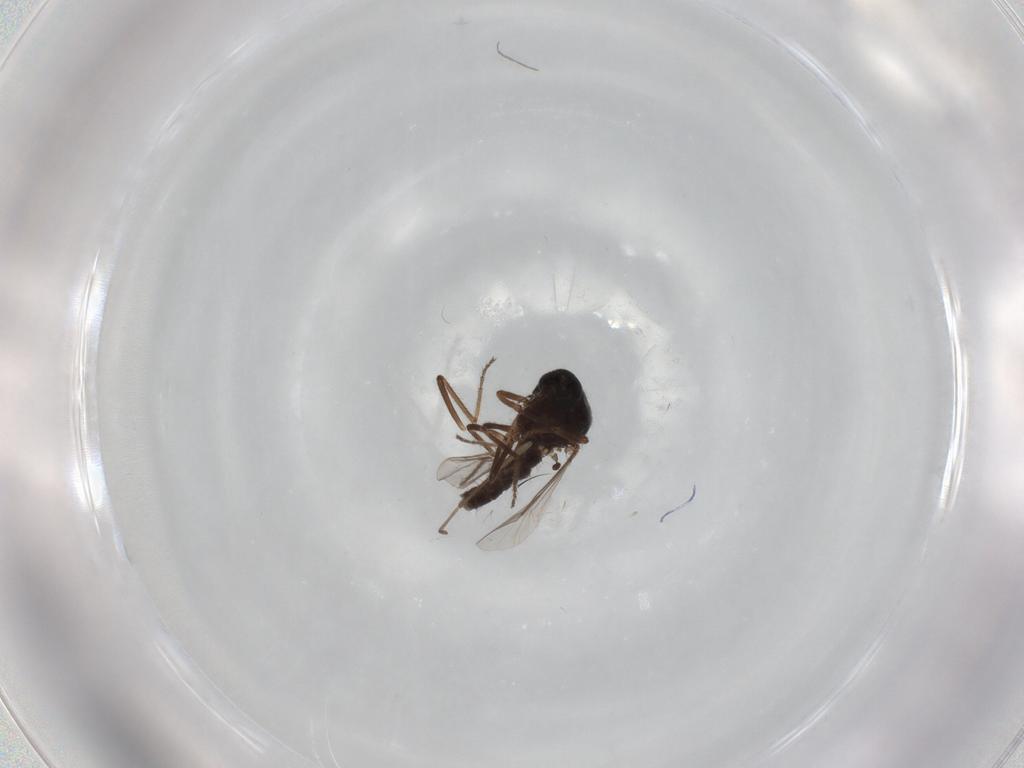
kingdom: Animalia
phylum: Arthropoda
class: Insecta
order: Diptera
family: Ceratopogonidae
